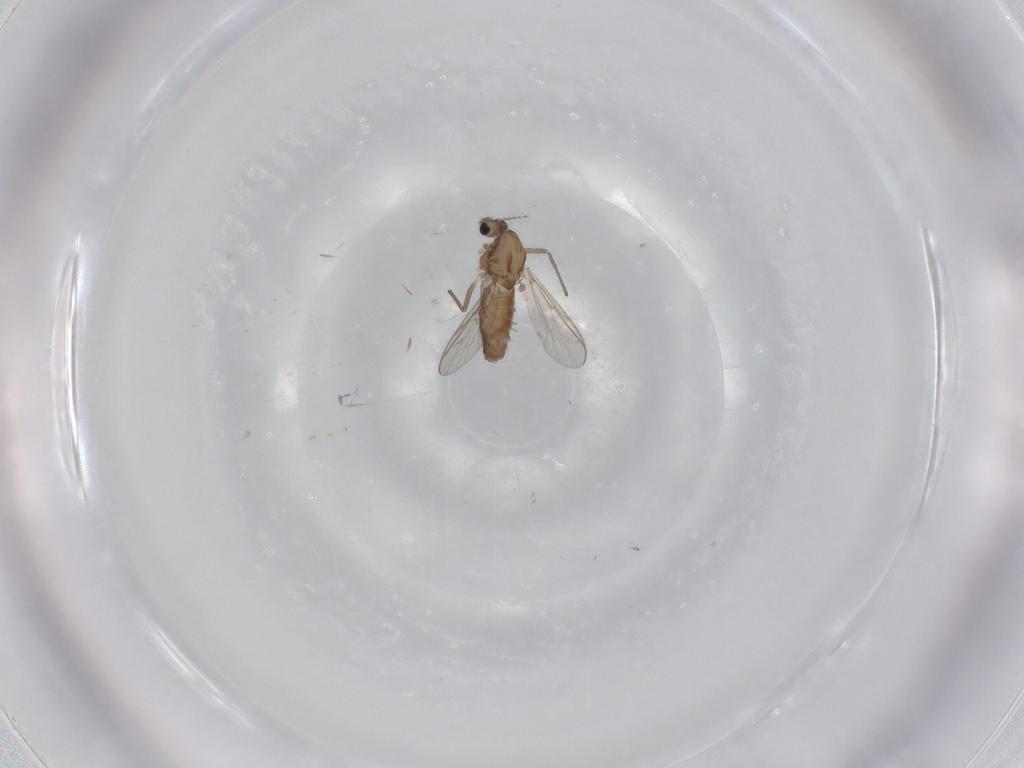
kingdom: Animalia
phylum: Arthropoda
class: Insecta
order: Diptera
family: Chironomidae
